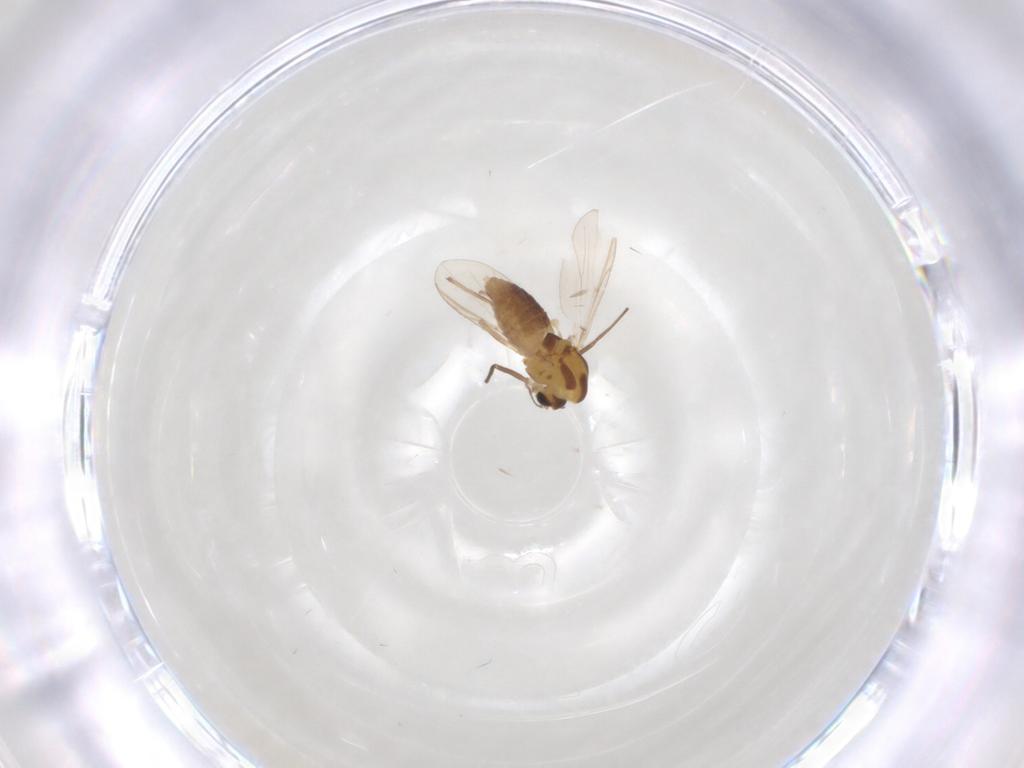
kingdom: Animalia
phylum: Arthropoda
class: Insecta
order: Diptera
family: Chironomidae
